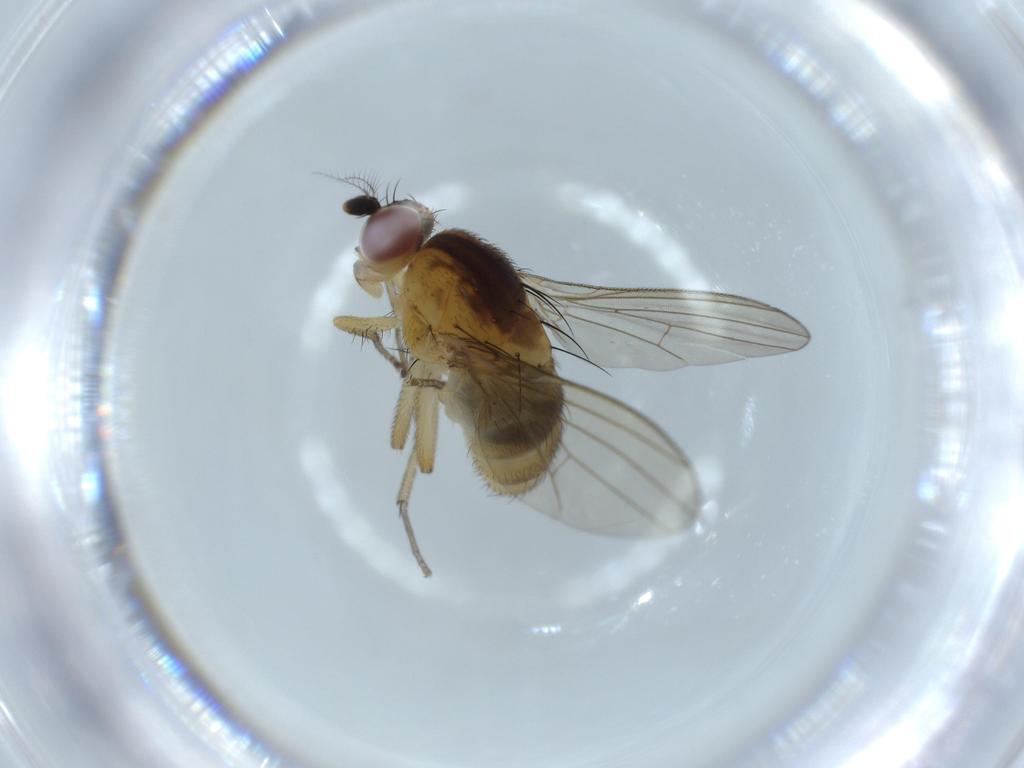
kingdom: Animalia
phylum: Arthropoda
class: Insecta
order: Diptera
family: Lauxaniidae
